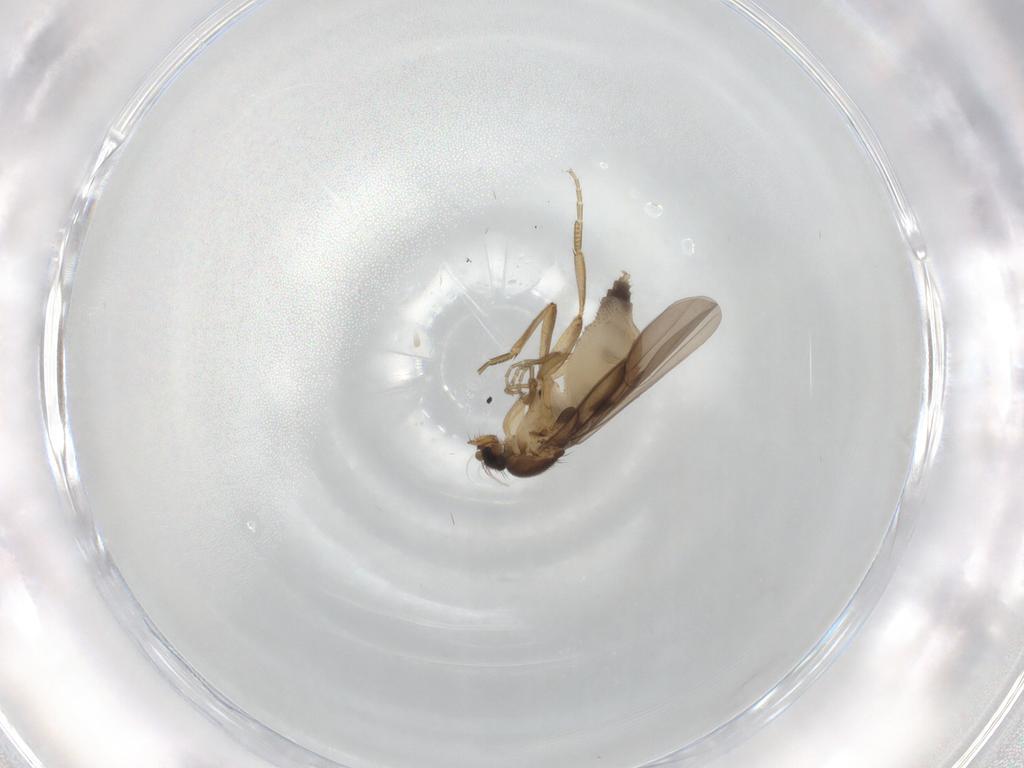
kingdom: Animalia
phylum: Arthropoda
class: Insecta
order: Diptera
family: Phoridae
